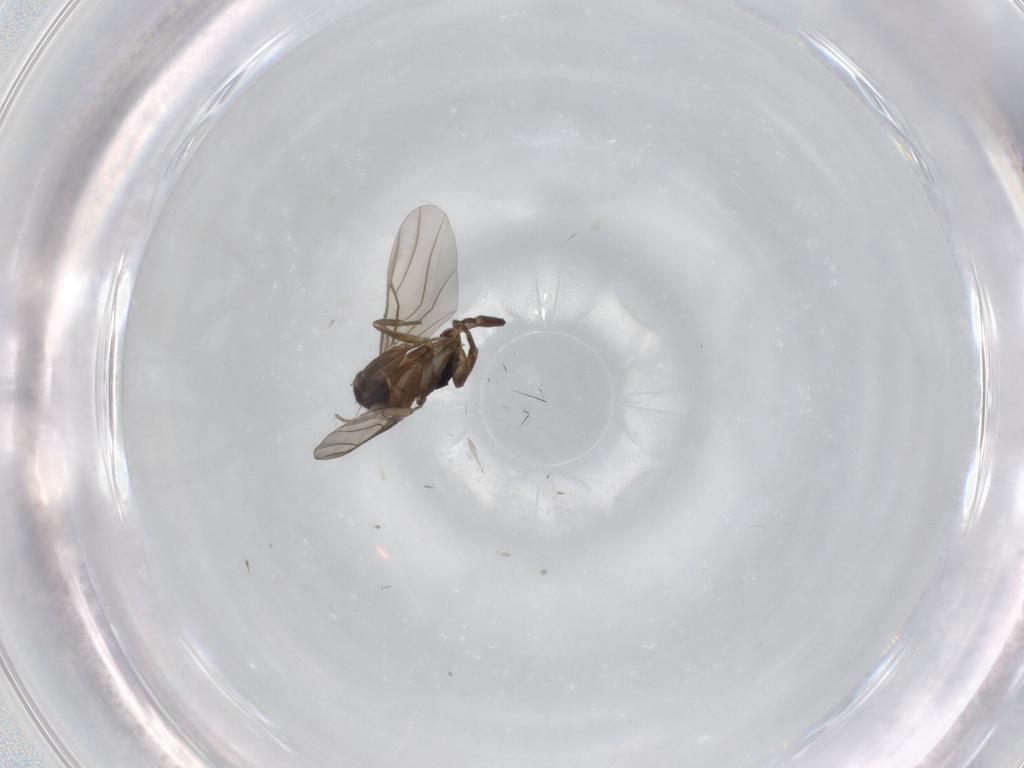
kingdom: Animalia
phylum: Arthropoda
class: Insecta
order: Diptera
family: Phoridae
